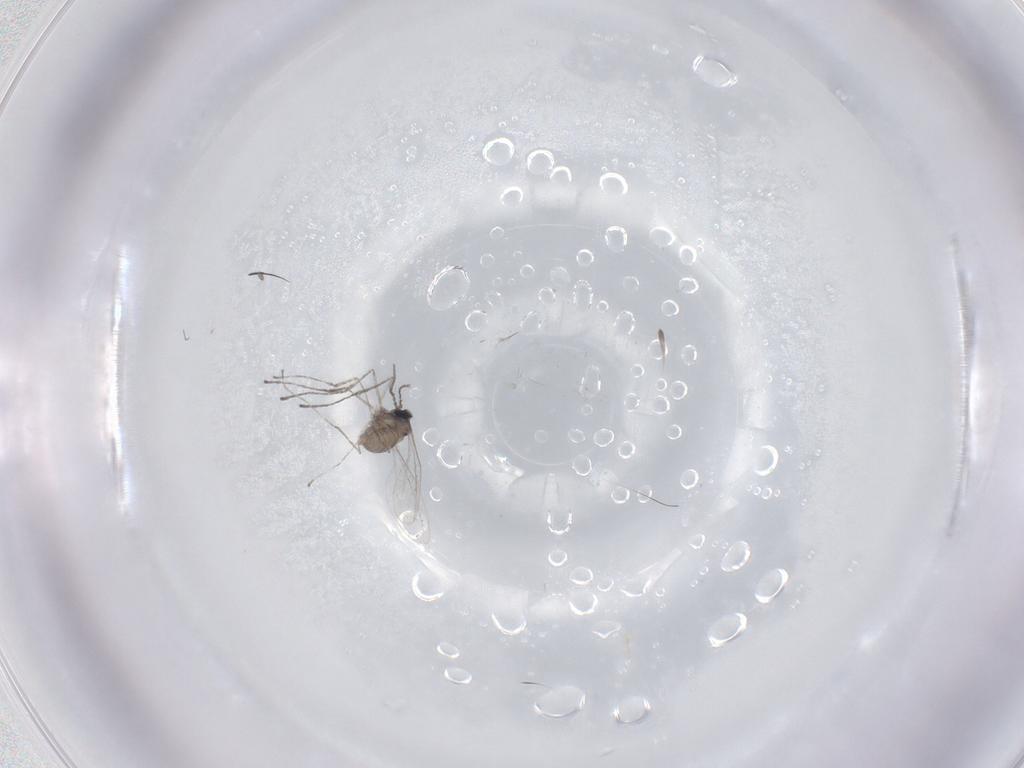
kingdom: Animalia
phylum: Arthropoda
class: Insecta
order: Diptera
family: Cecidomyiidae
